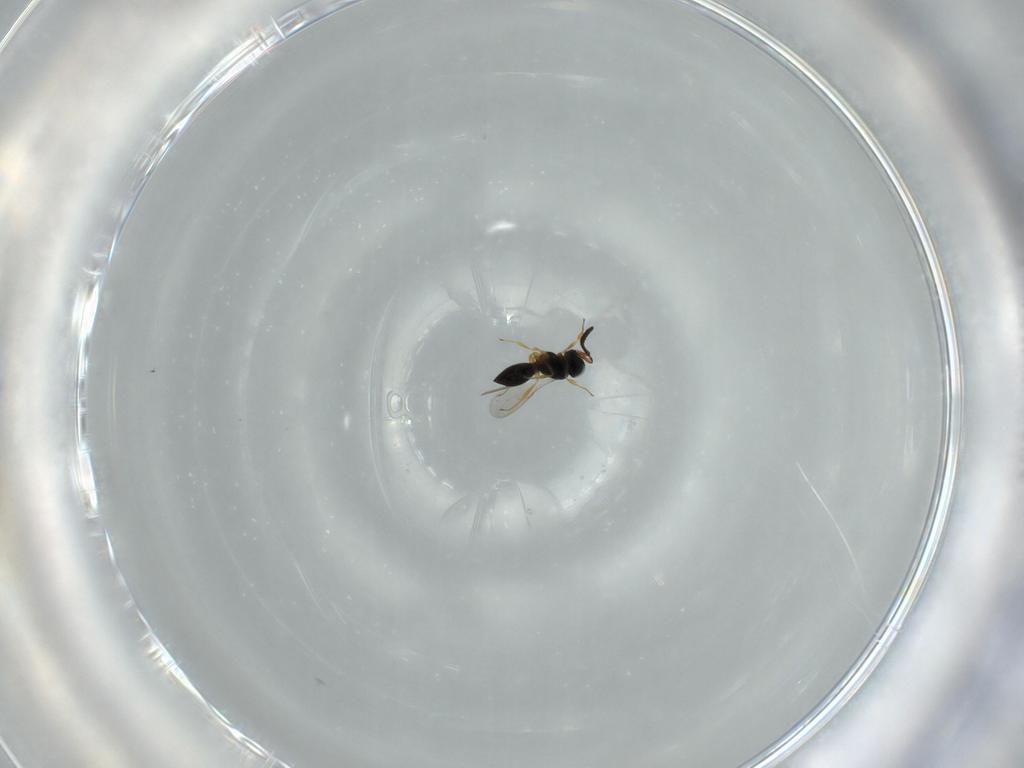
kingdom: Animalia
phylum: Arthropoda
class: Insecta
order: Hymenoptera
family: Scelionidae
